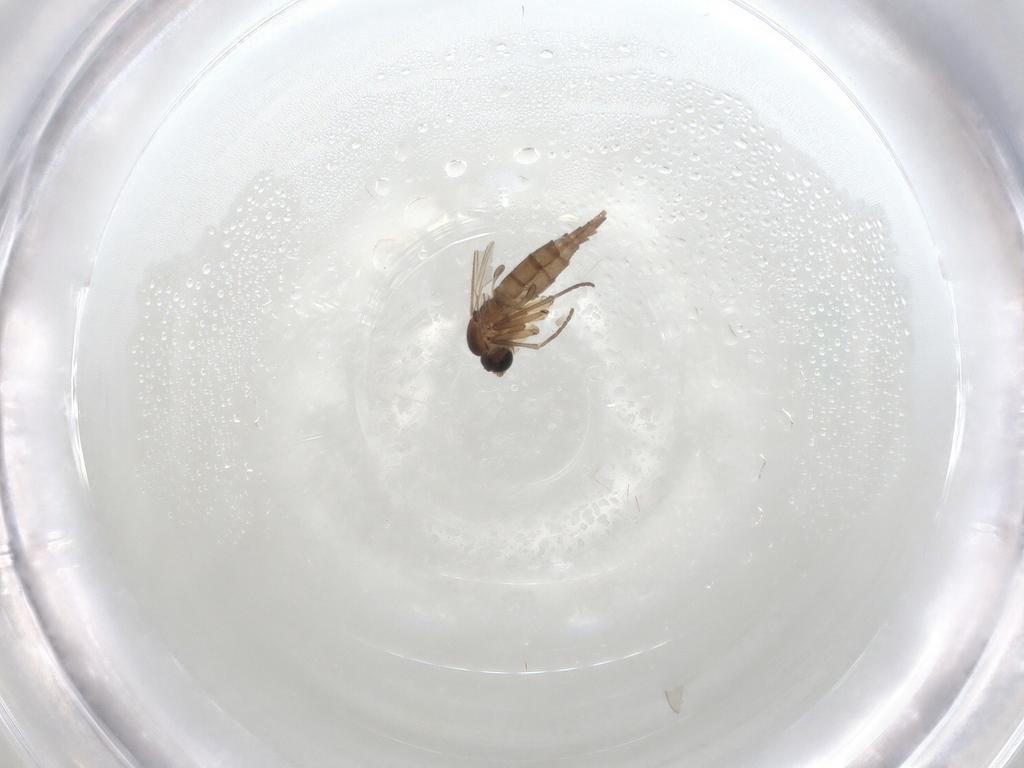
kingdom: Animalia
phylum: Arthropoda
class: Insecta
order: Diptera
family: Sciaridae
